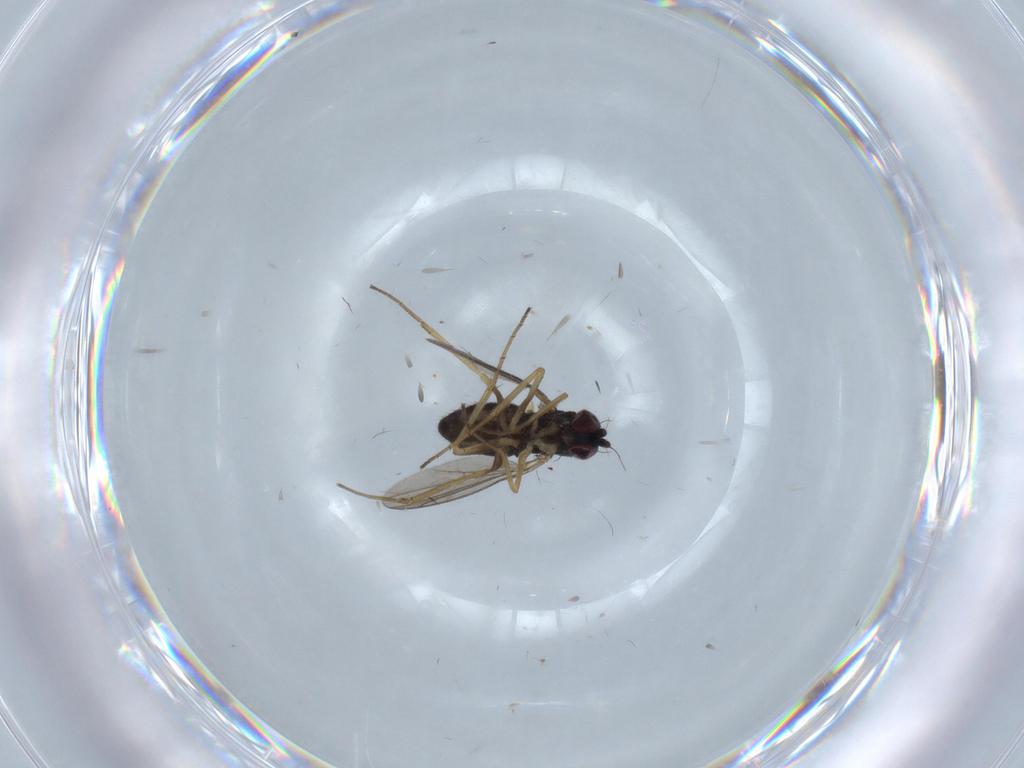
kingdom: Animalia
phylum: Arthropoda
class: Insecta
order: Diptera
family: Dolichopodidae
